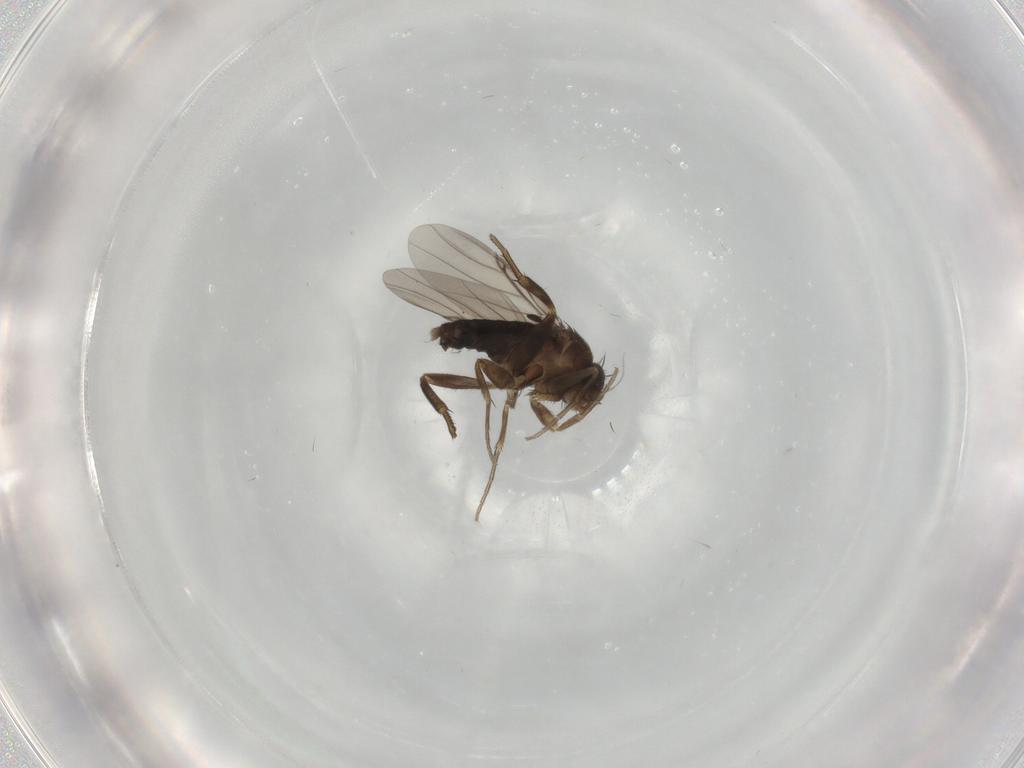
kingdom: Animalia
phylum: Arthropoda
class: Insecta
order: Diptera
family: Phoridae
